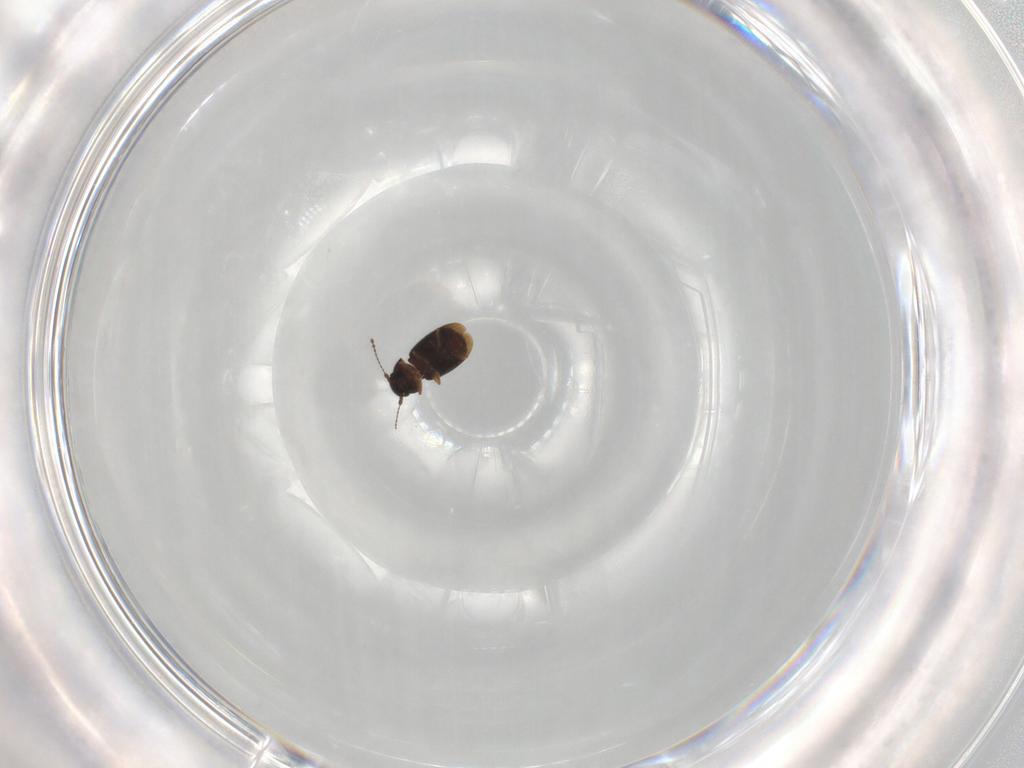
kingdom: Animalia
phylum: Arthropoda
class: Insecta
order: Coleoptera
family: Ptiliidae
